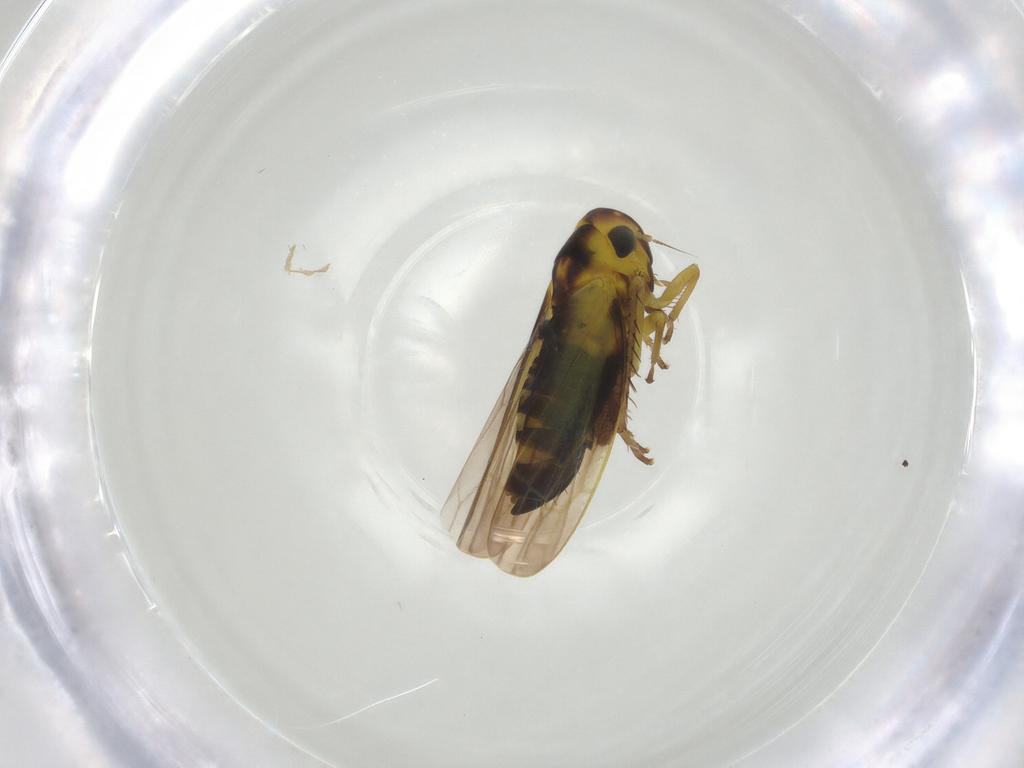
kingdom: Animalia
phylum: Arthropoda
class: Insecta
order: Hemiptera
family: Cicadellidae
